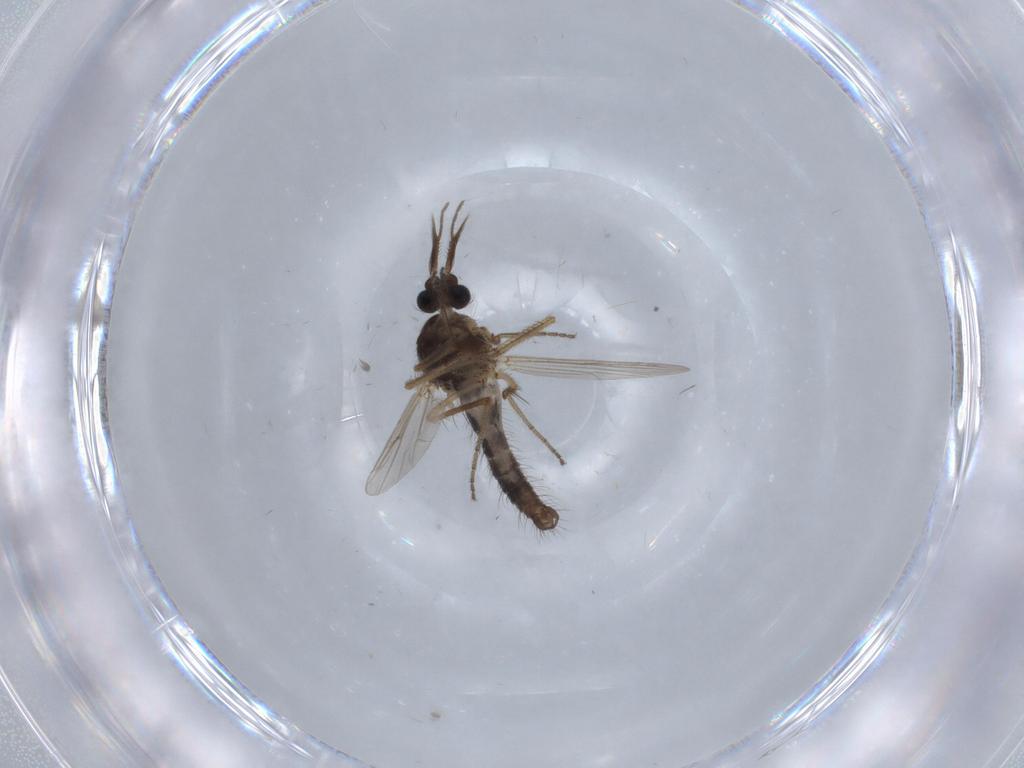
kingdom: Animalia
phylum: Arthropoda
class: Insecta
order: Diptera
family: Ceratopogonidae
